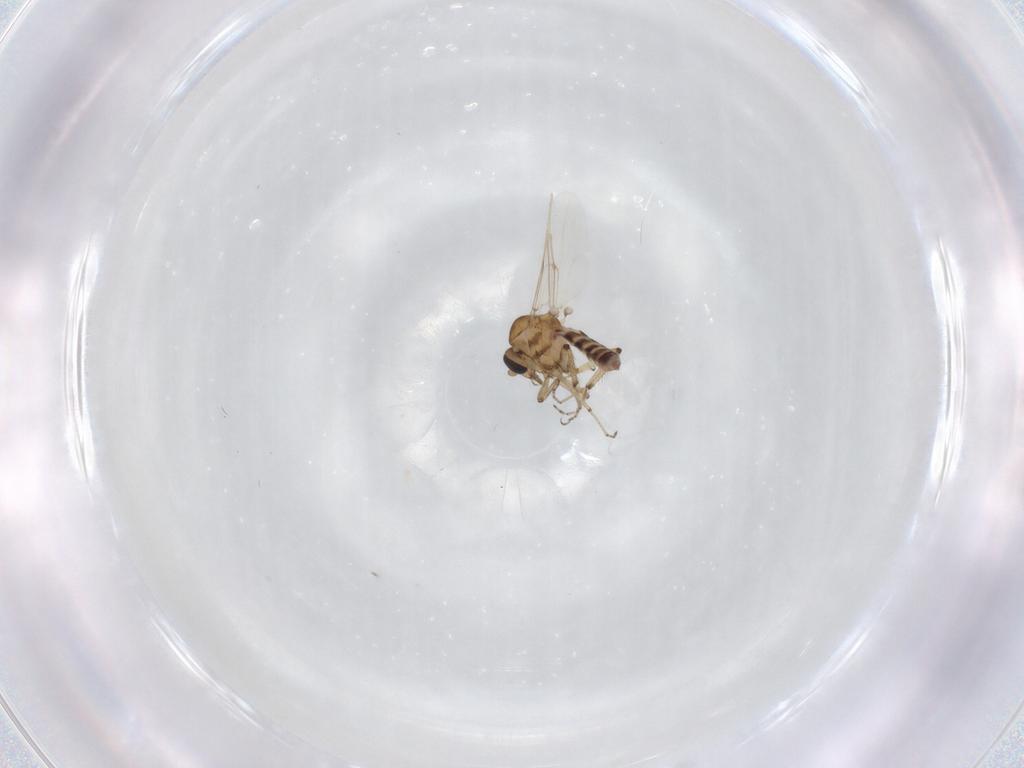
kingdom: Animalia
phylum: Arthropoda
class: Insecta
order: Diptera
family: Ceratopogonidae
